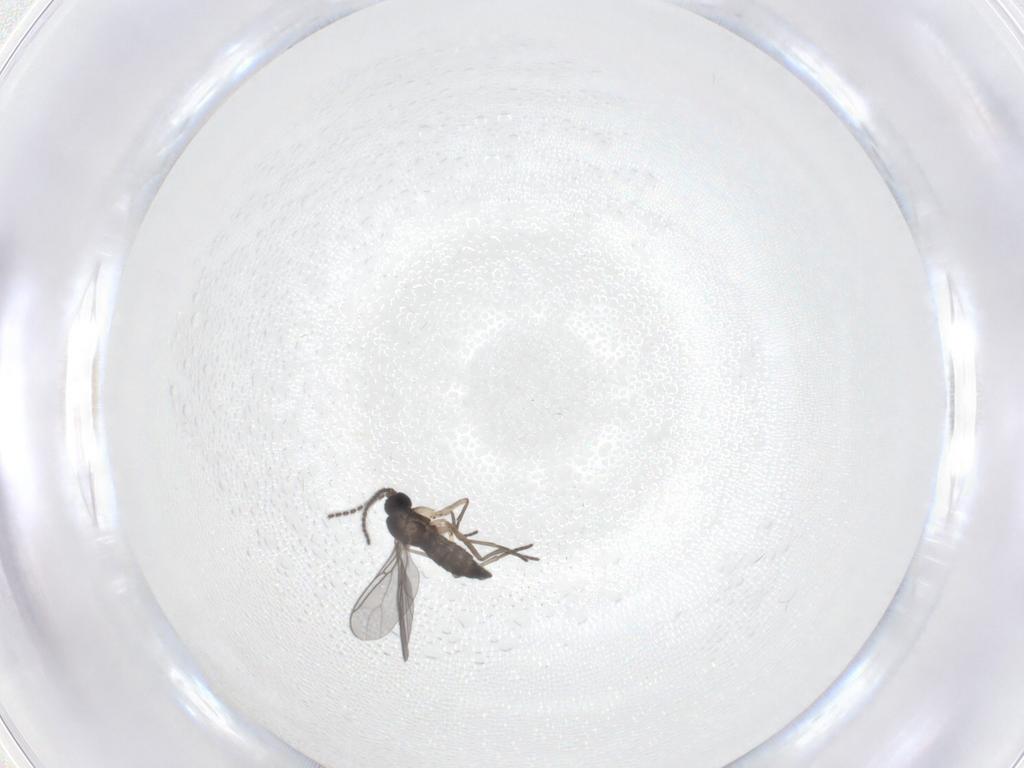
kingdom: Animalia
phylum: Arthropoda
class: Insecta
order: Diptera
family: Sciaridae
